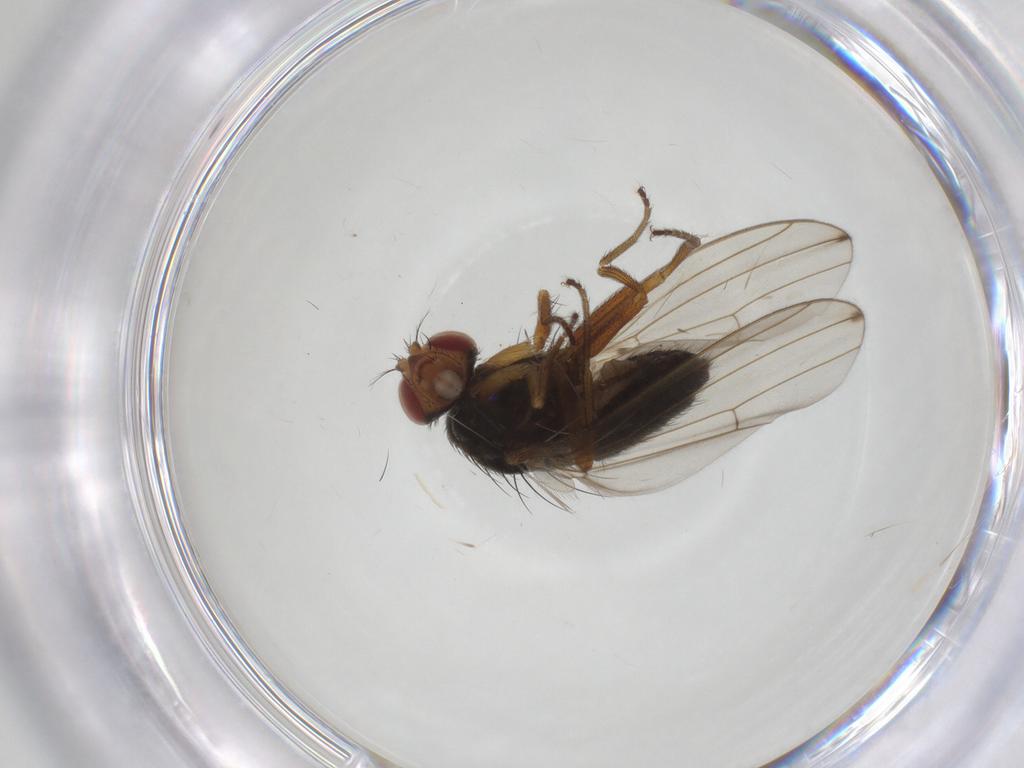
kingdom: Animalia
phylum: Arthropoda
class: Insecta
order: Diptera
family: Drosophilidae
